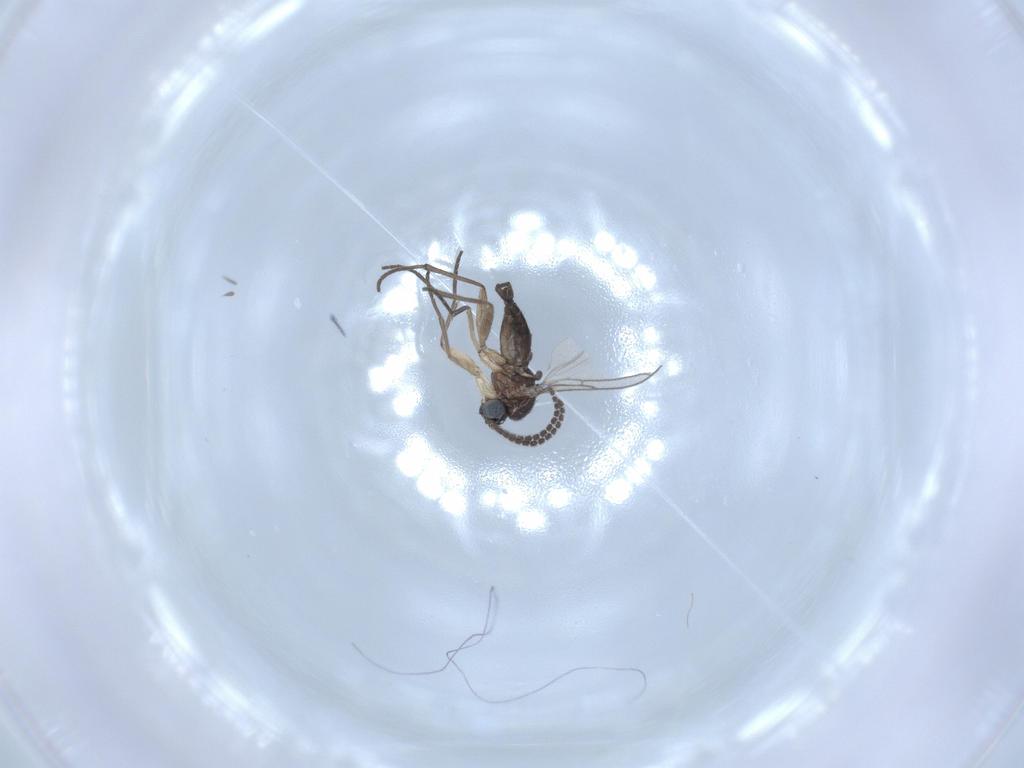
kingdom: Animalia
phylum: Arthropoda
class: Insecta
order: Diptera
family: Sciaridae
